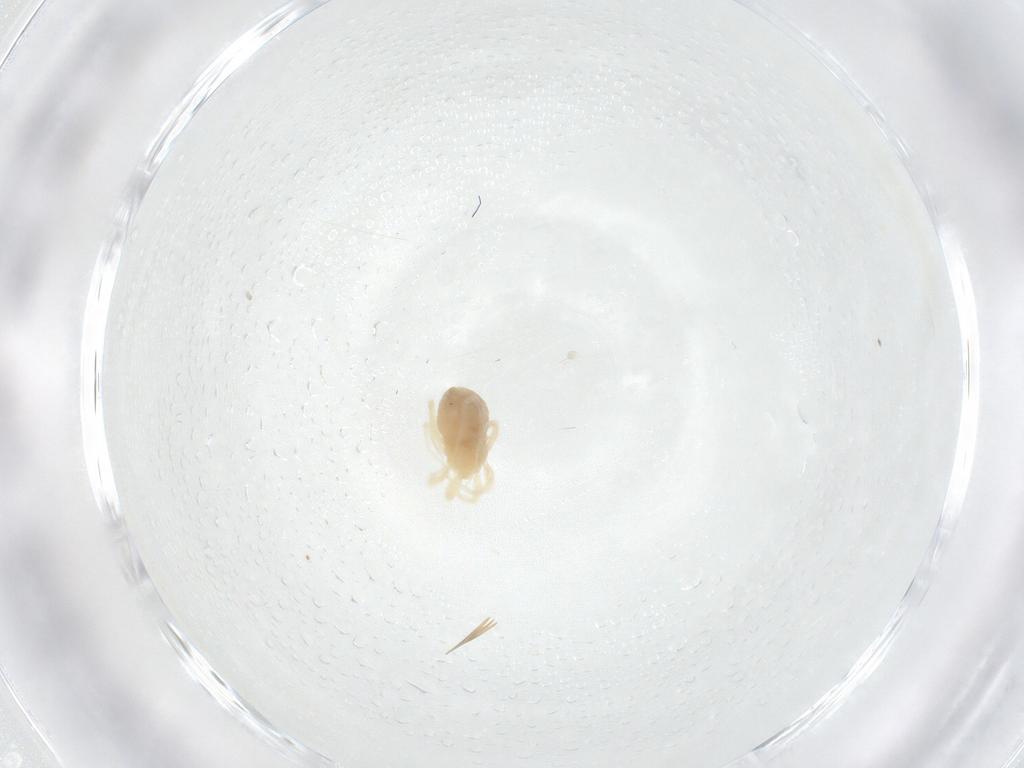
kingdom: Animalia
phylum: Arthropoda
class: Arachnida
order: Trombidiformes
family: Anystidae
